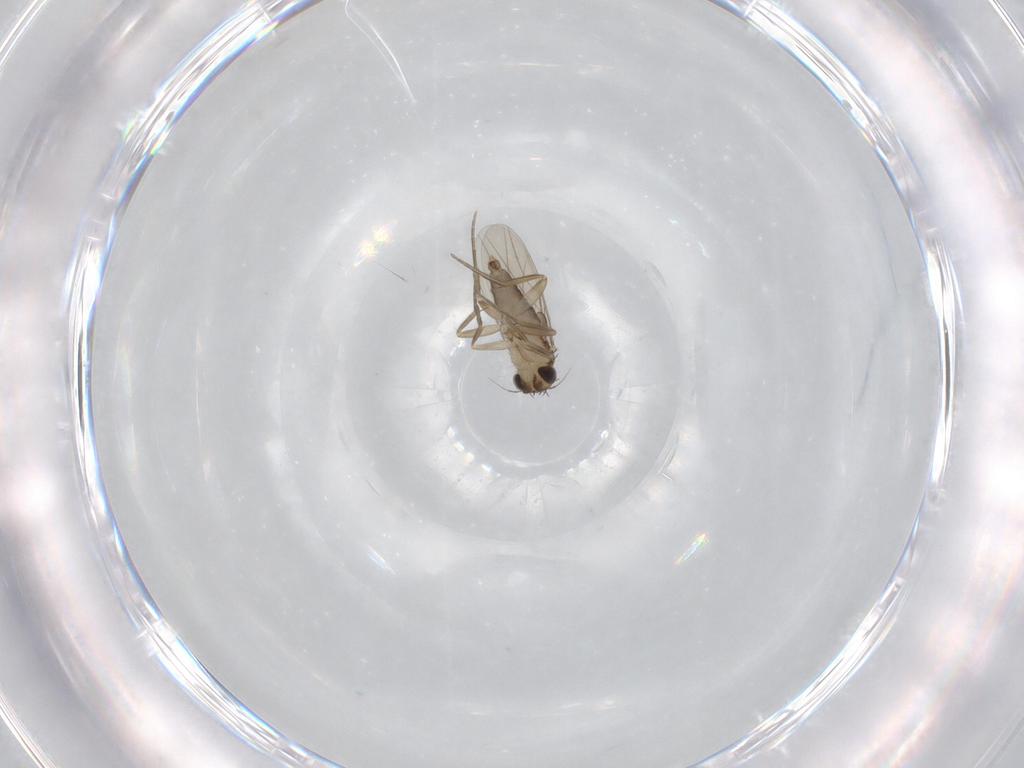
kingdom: Animalia
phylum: Arthropoda
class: Insecta
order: Diptera
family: Phoridae
